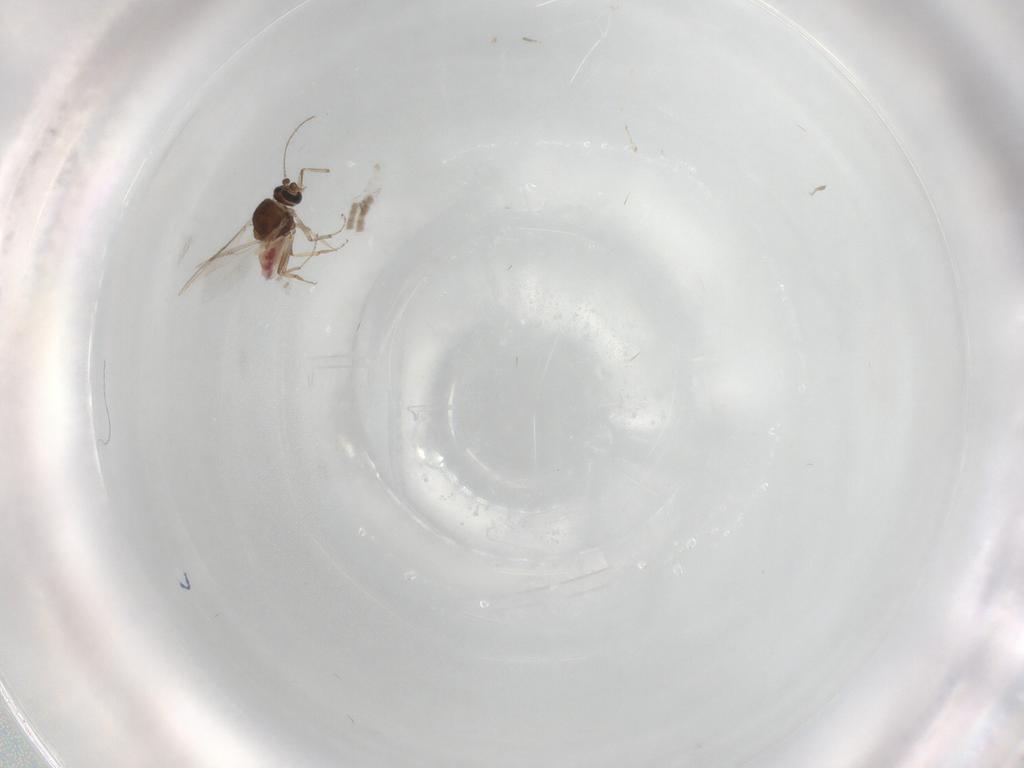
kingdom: Animalia
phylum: Arthropoda
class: Insecta
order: Diptera
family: Ceratopogonidae
